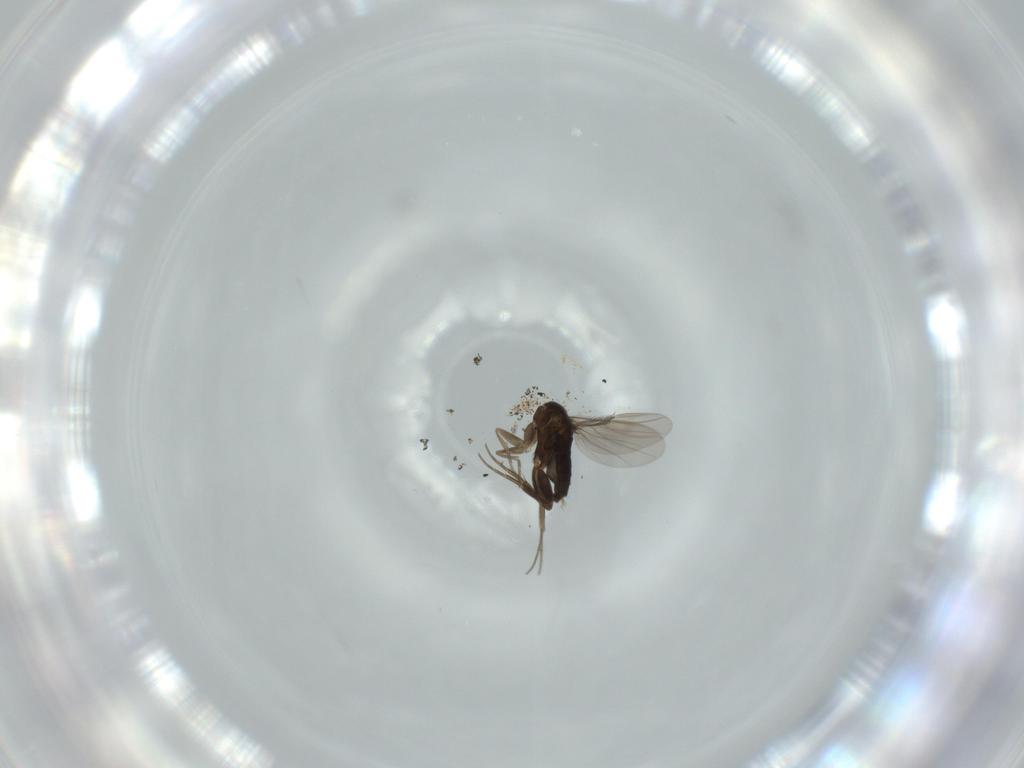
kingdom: Animalia
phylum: Arthropoda
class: Insecta
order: Diptera
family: Phoridae
